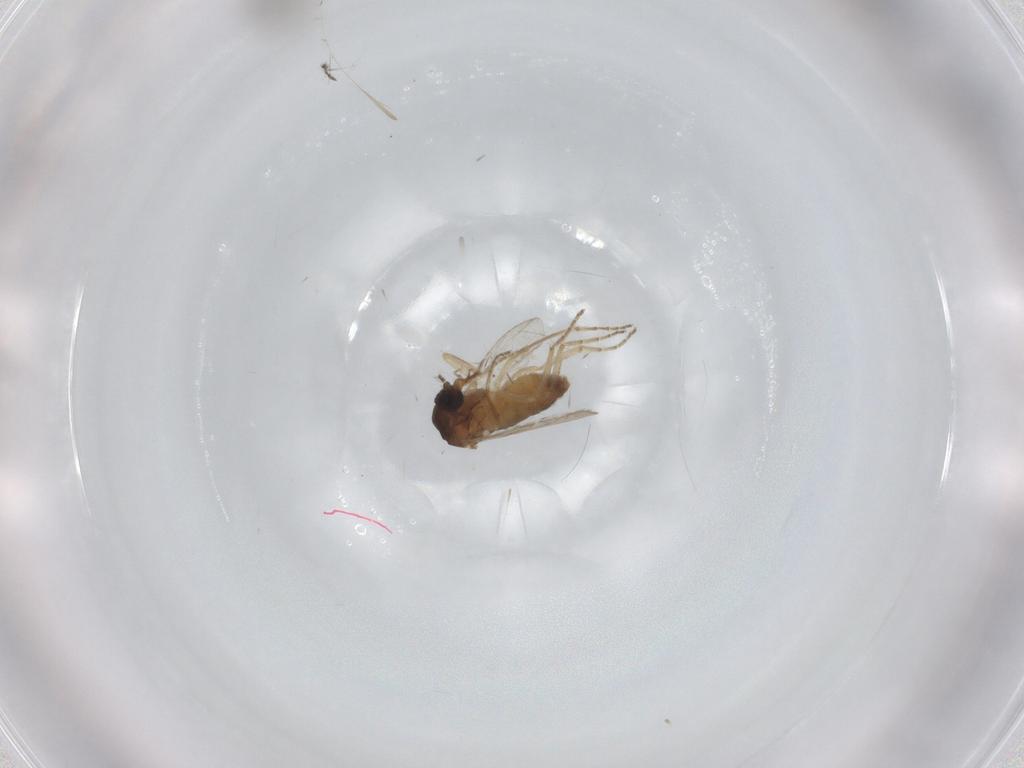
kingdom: Animalia
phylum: Arthropoda
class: Insecta
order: Diptera
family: Ceratopogonidae
